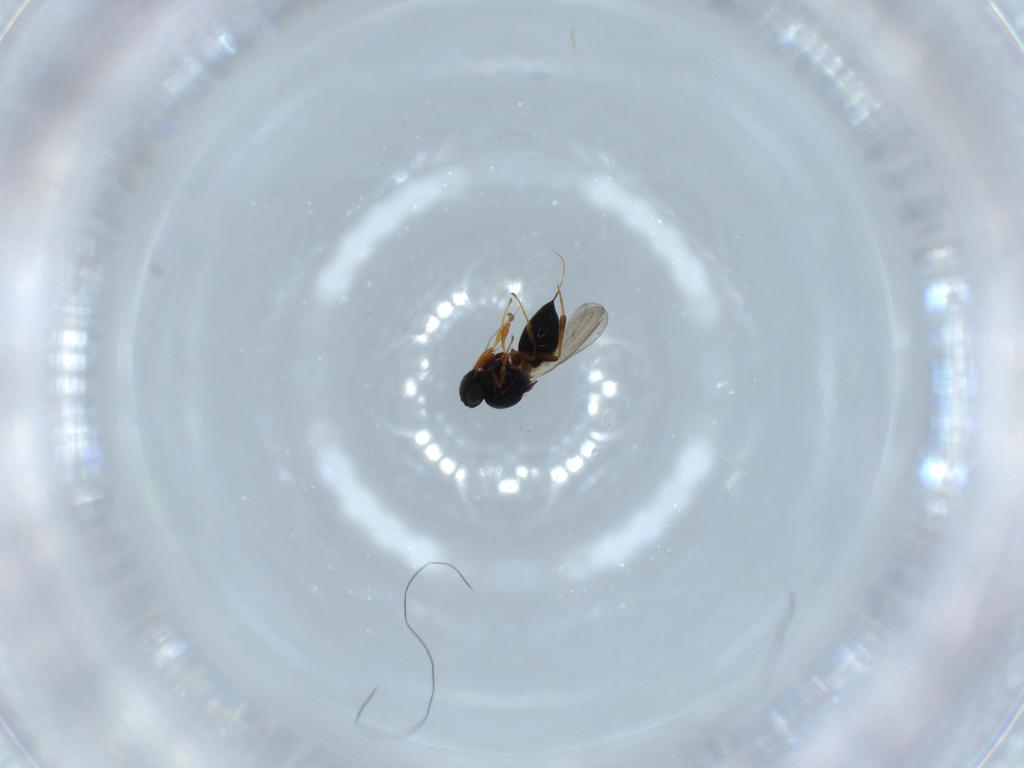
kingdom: Animalia
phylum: Arthropoda
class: Insecta
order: Hymenoptera
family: Platygastridae
